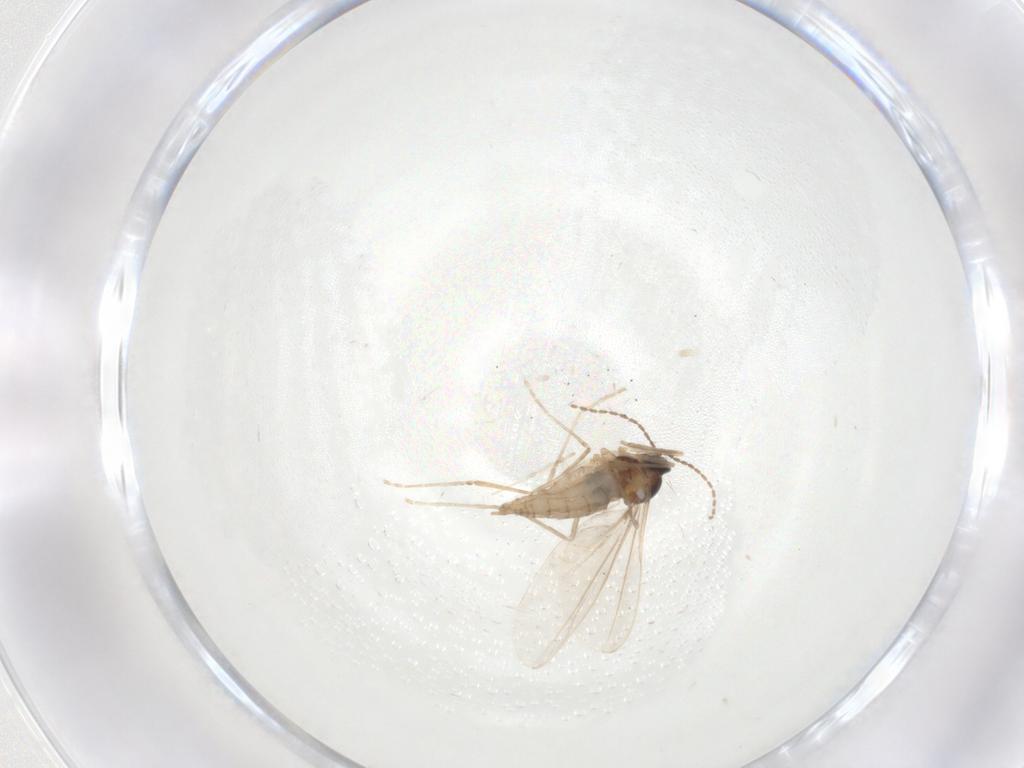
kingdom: Animalia
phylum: Arthropoda
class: Insecta
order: Diptera
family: Cecidomyiidae
